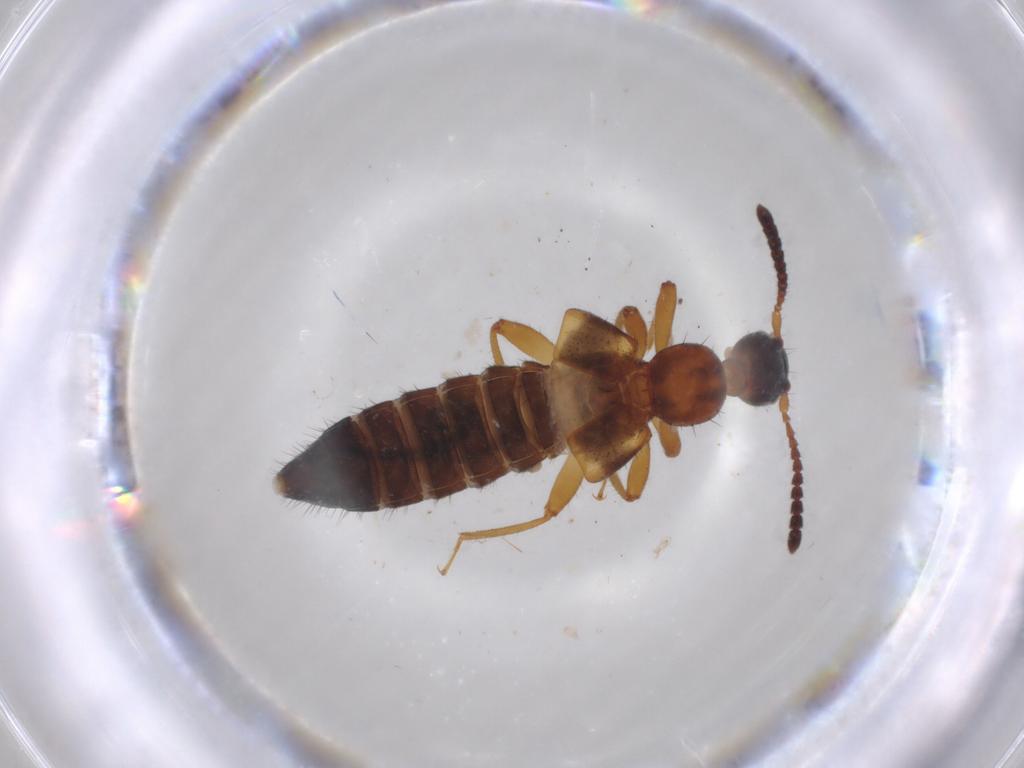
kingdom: Animalia
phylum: Arthropoda
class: Insecta
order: Coleoptera
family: Staphylinidae
